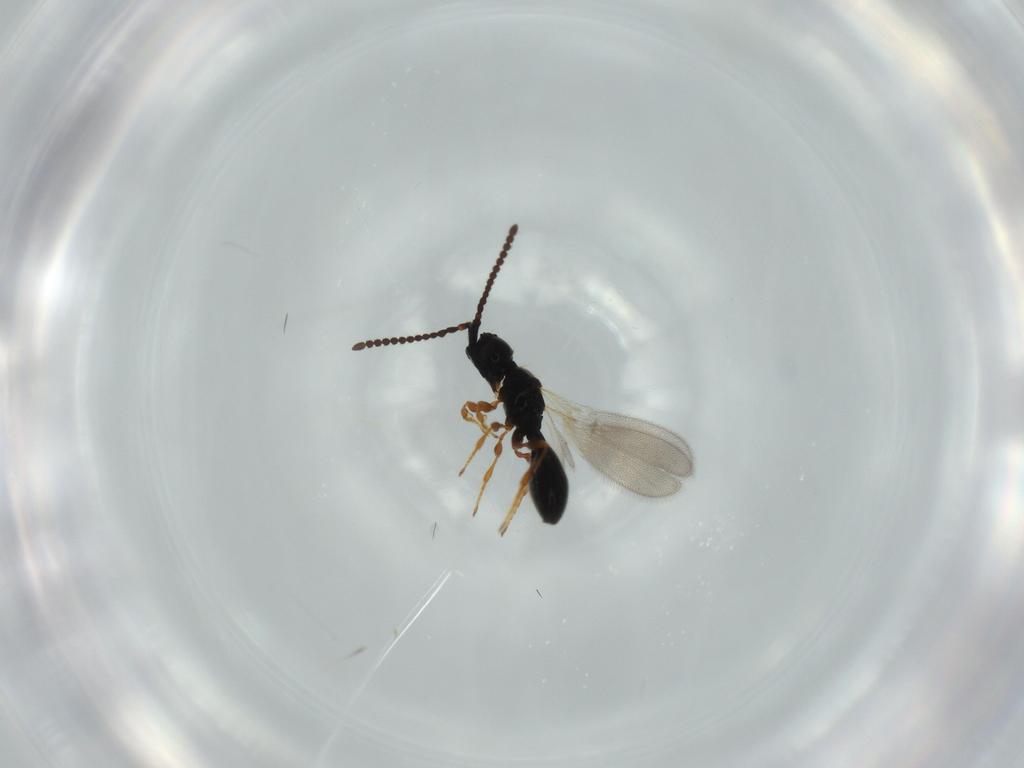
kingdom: Animalia
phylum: Arthropoda
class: Insecta
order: Hymenoptera
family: Diapriidae
